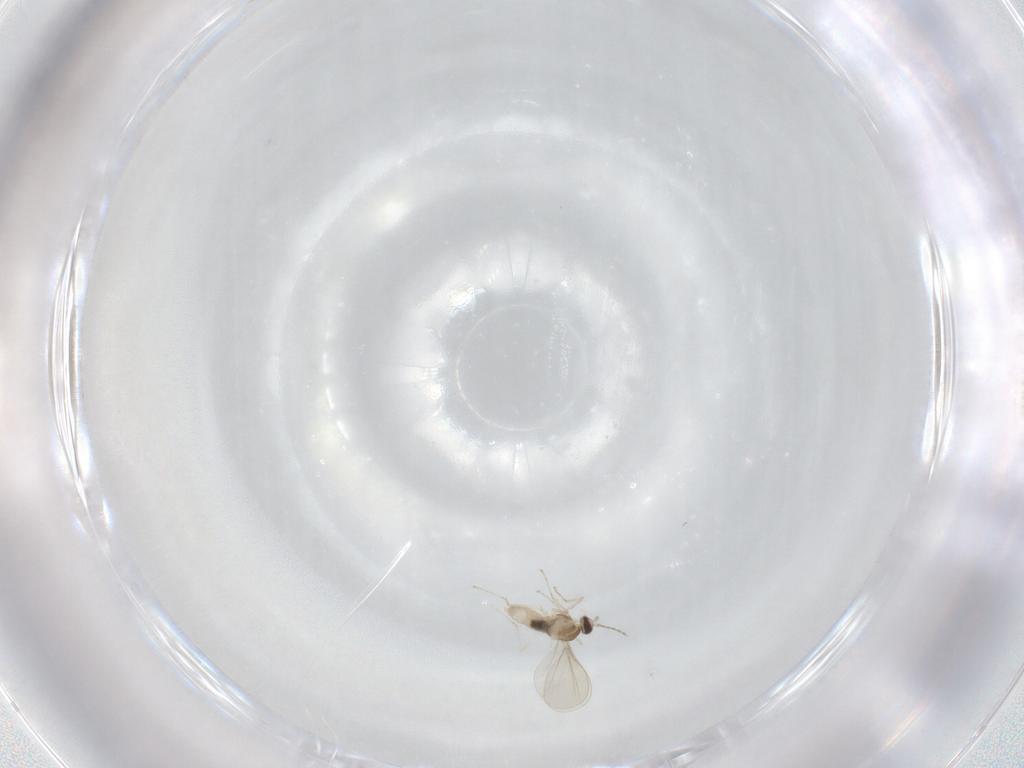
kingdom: Animalia
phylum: Arthropoda
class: Insecta
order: Diptera
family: Cecidomyiidae
